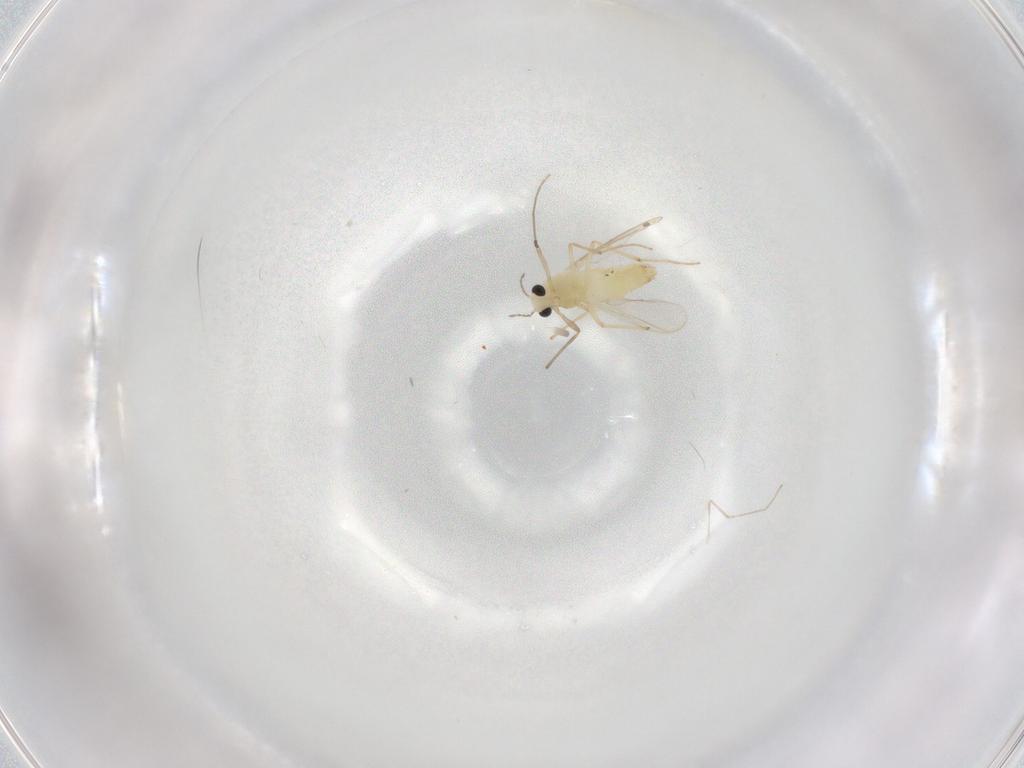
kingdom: Animalia
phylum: Arthropoda
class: Insecta
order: Diptera
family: Chironomidae
